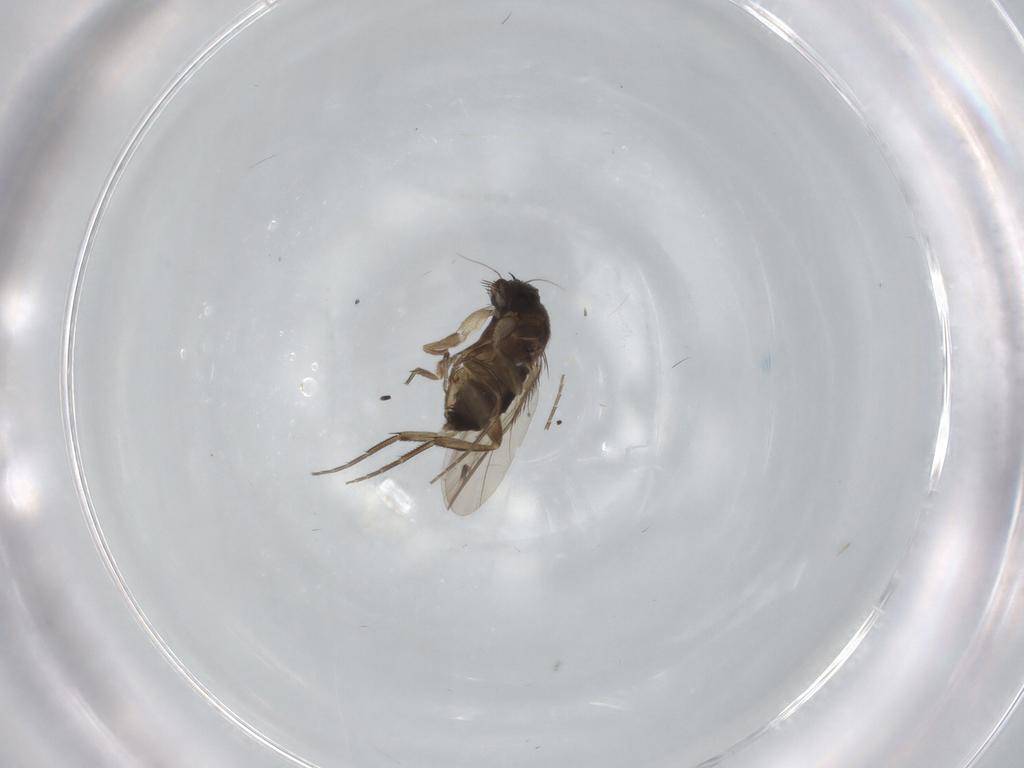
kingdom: Animalia
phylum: Arthropoda
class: Insecta
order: Diptera
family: Phoridae
